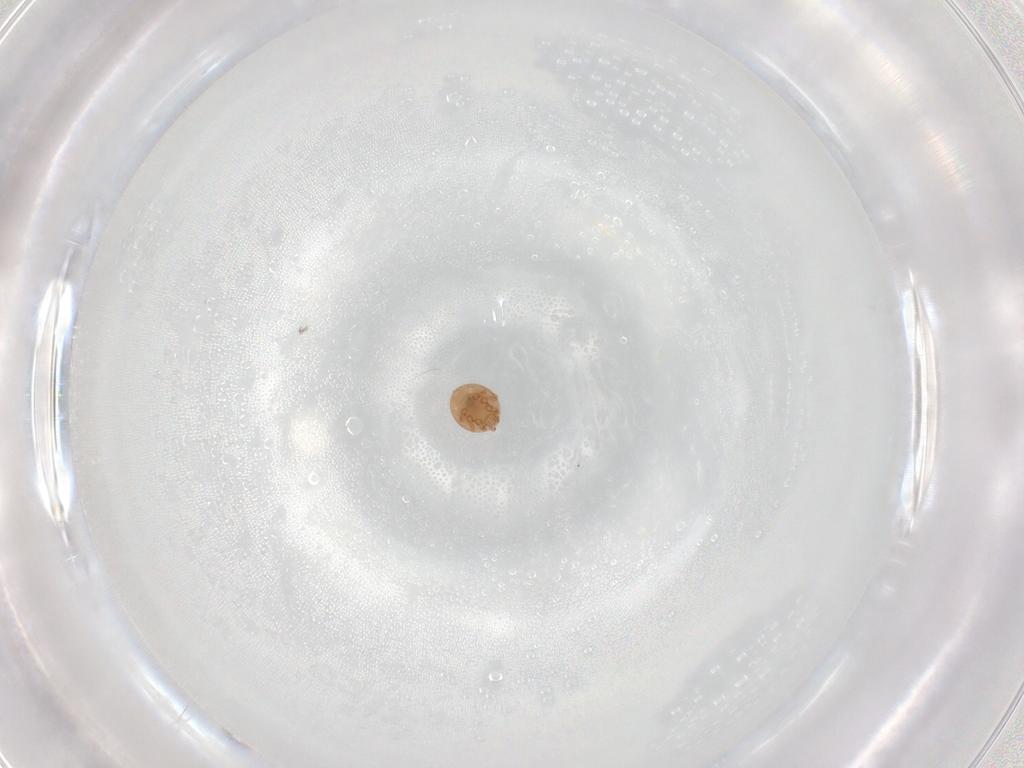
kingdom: Animalia
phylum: Arthropoda
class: Arachnida
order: Mesostigmata
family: Trematuridae
